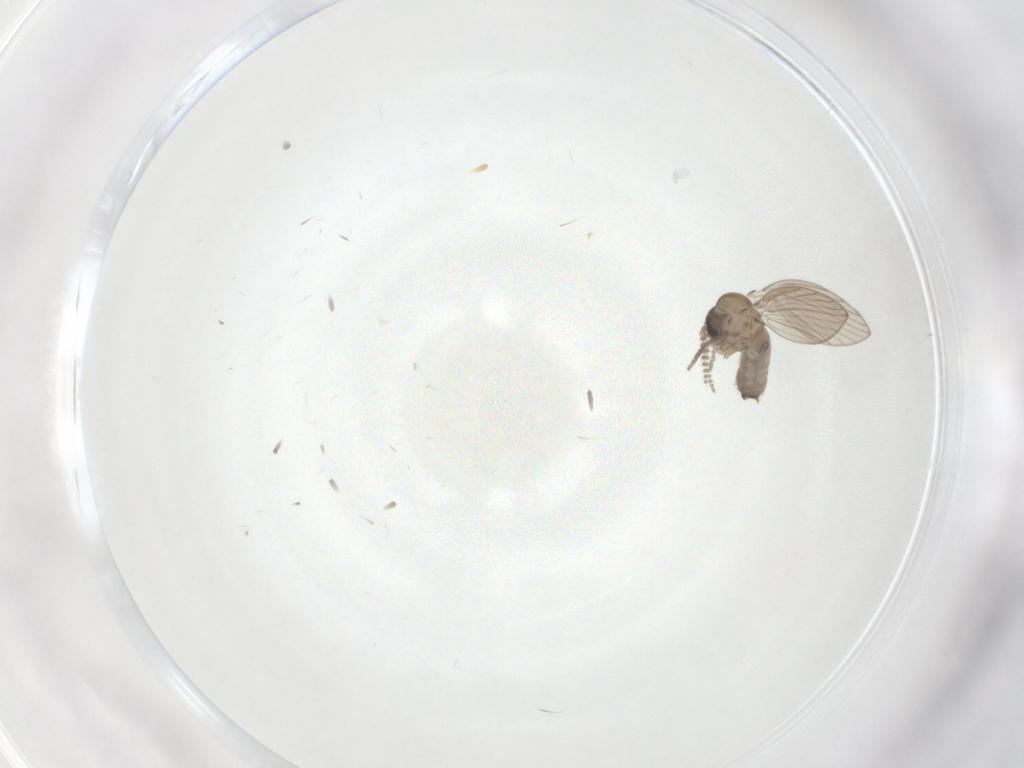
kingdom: Animalia
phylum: Arthropoda
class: Insecta
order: Diptera
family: Psychodidae
